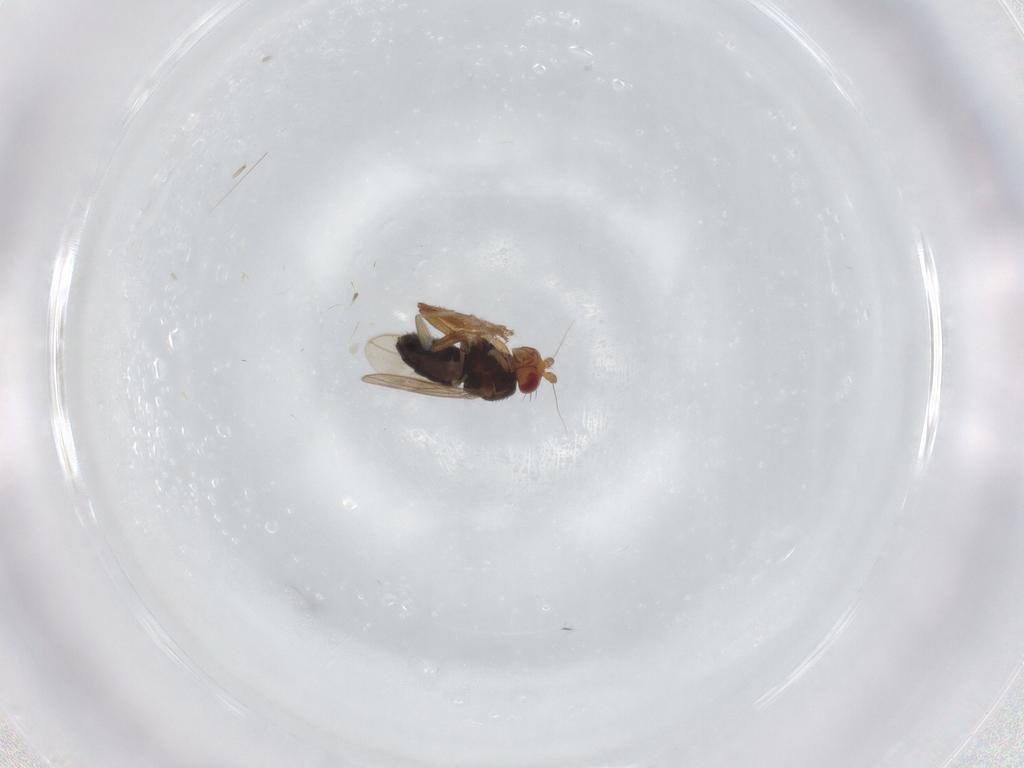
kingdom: Animalia
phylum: Arthropoda
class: Insecta
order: Diptera
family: Sphaeroceridae
